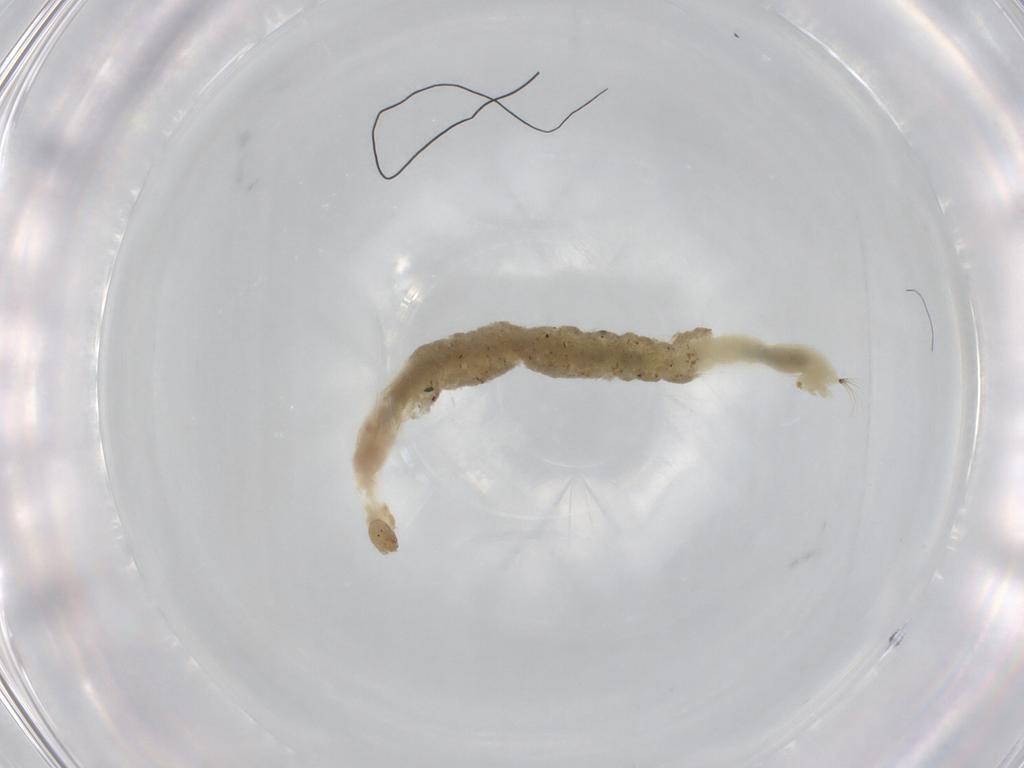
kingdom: Animalia
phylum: Arthropoda
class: Insecta
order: Diptera
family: Chironomidae
